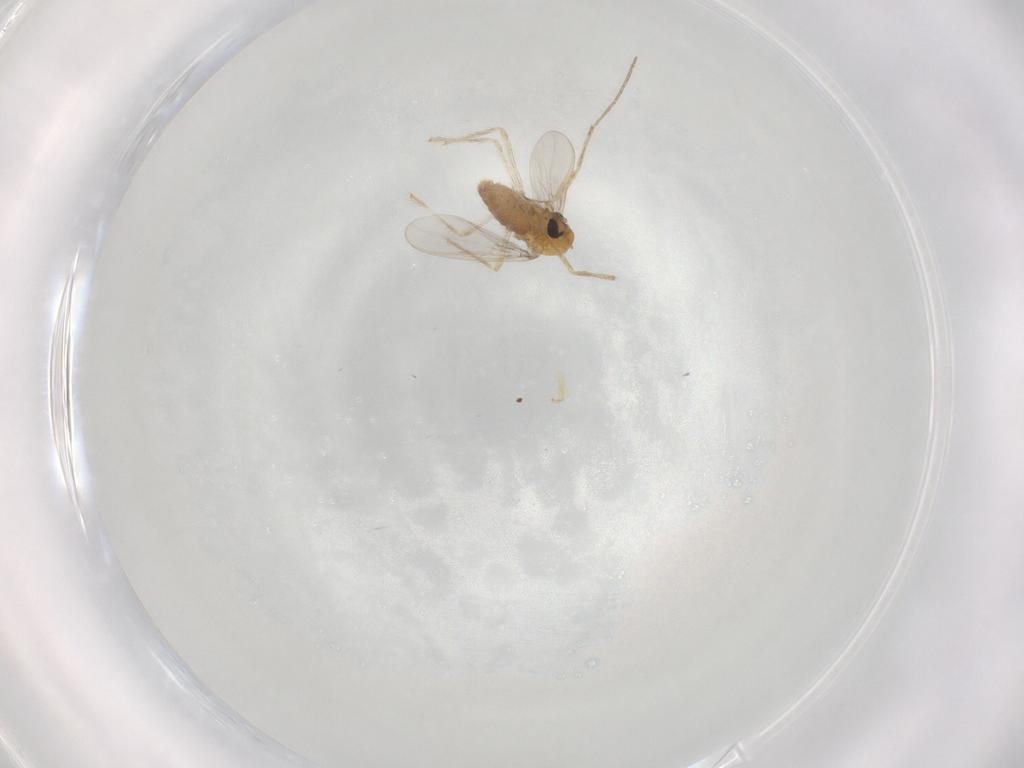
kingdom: Animalia
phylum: Arthropoda
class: Insecta
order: Diptera
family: Chironomidae
